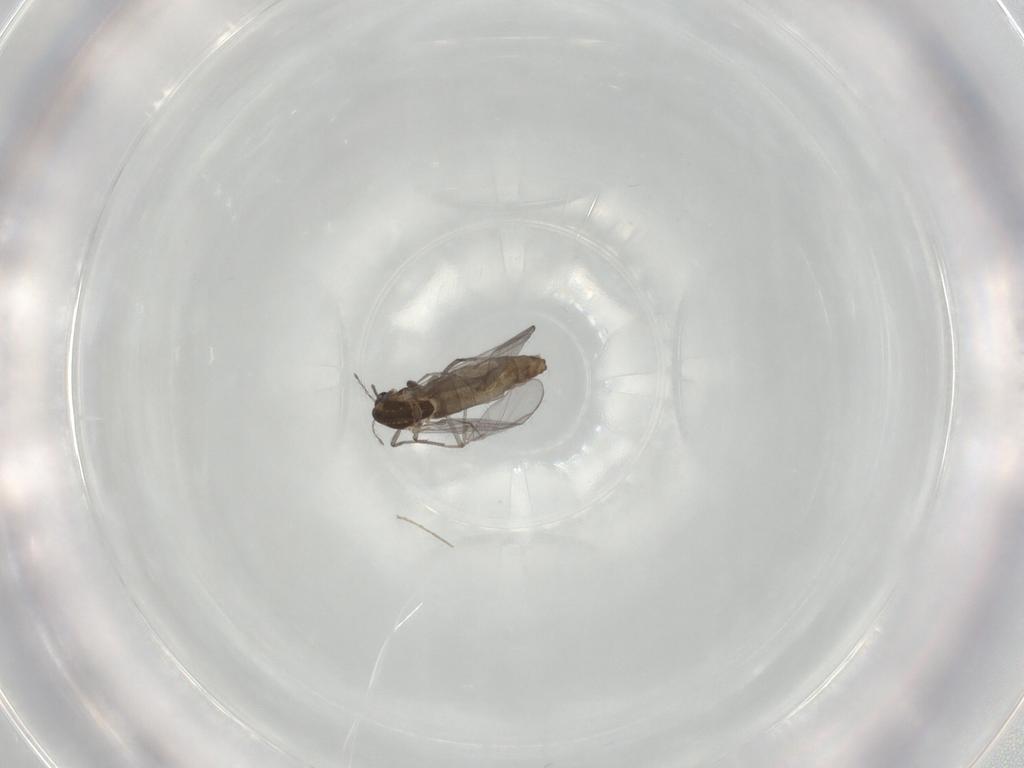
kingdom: Animalia
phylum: Arthropoda
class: Insecta
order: Diptera
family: Chironomidae
